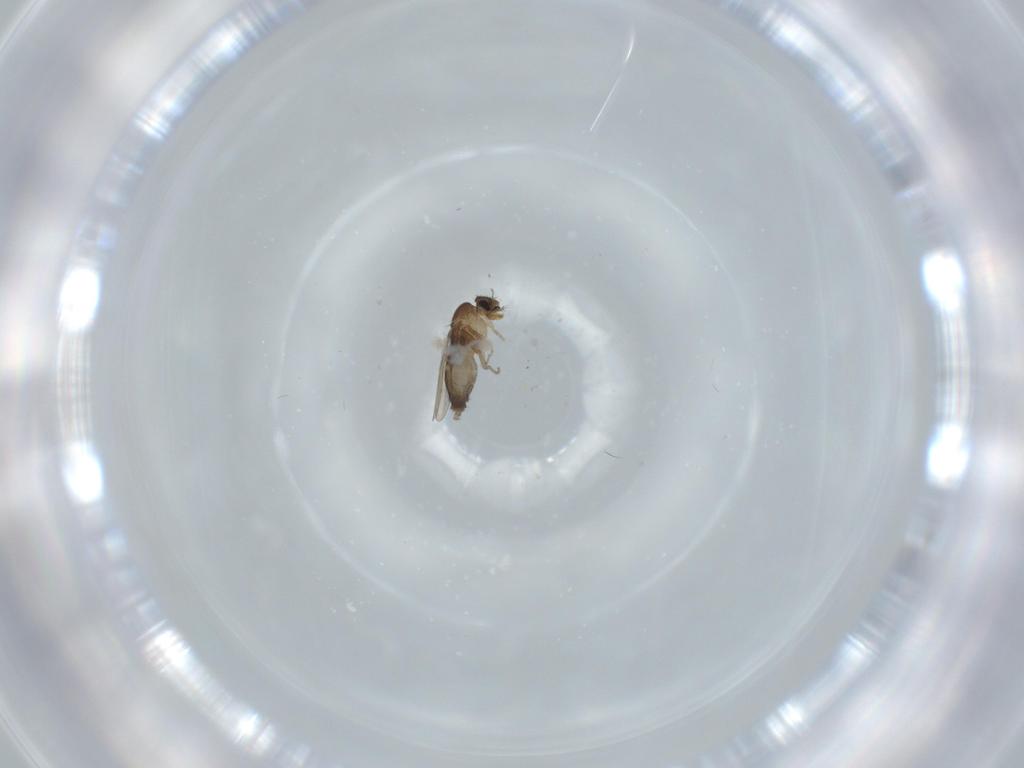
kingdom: Animalia
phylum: Arthropoda
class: Insecta
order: Diptera
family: Phoridae
